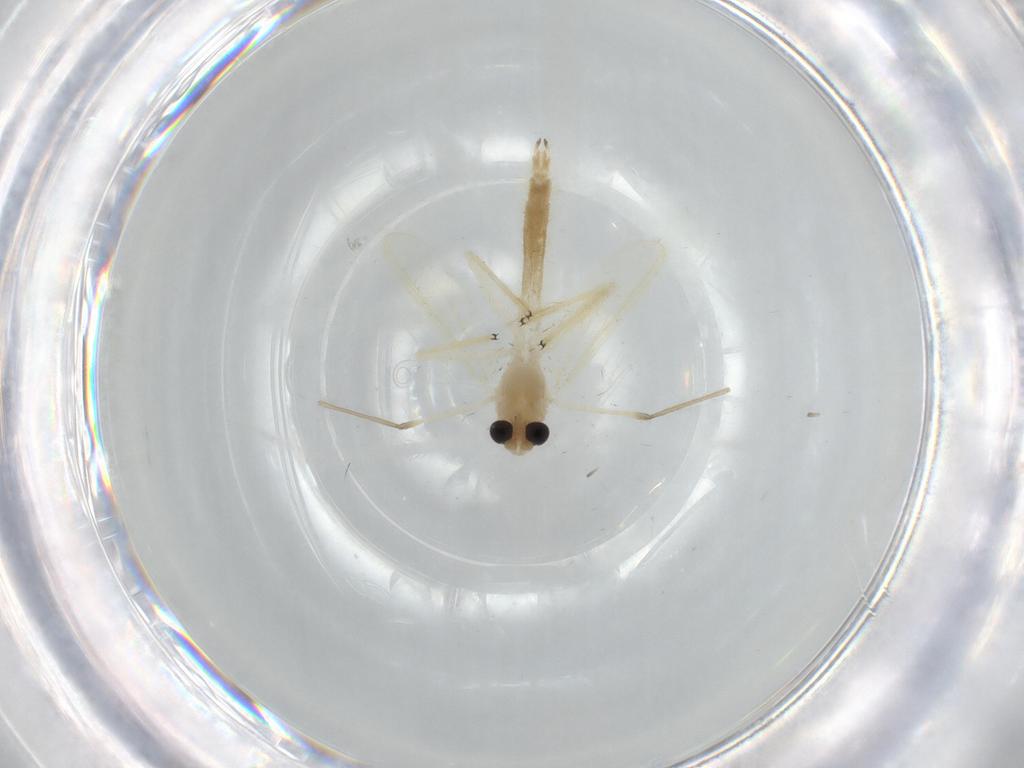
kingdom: Animalia
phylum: Arthropoda
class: Insecta
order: Diptera
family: Chironomidae
